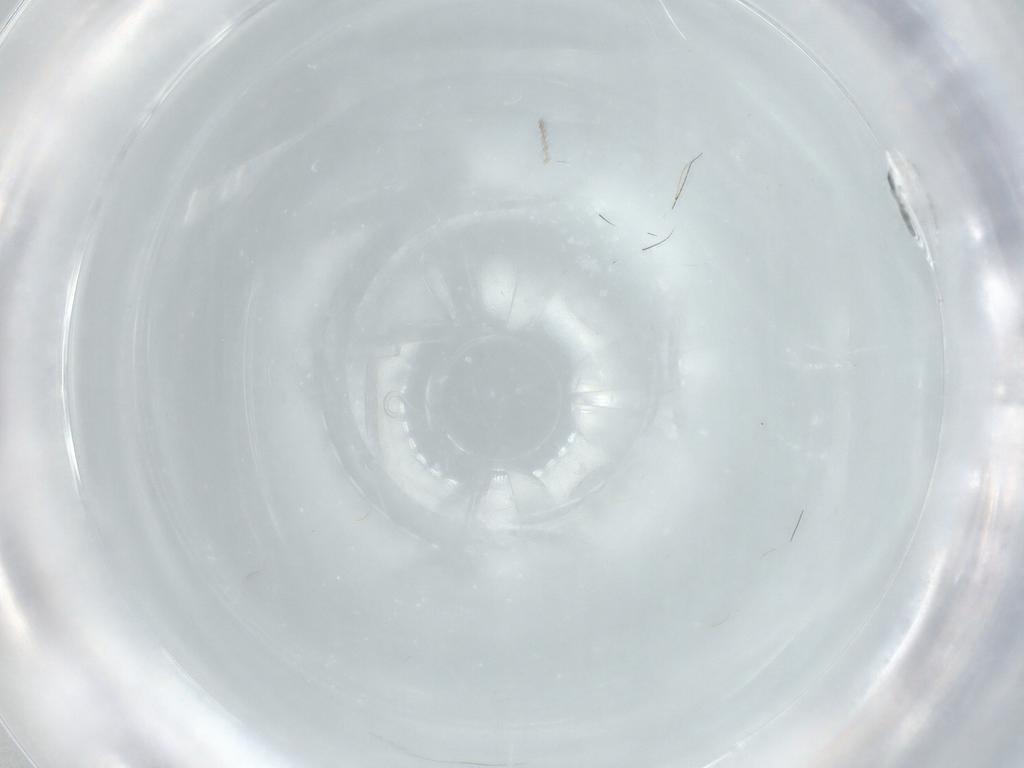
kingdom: Animalia
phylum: Arthropoda
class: Insecta
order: Diptera
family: Cecidomyiidae
